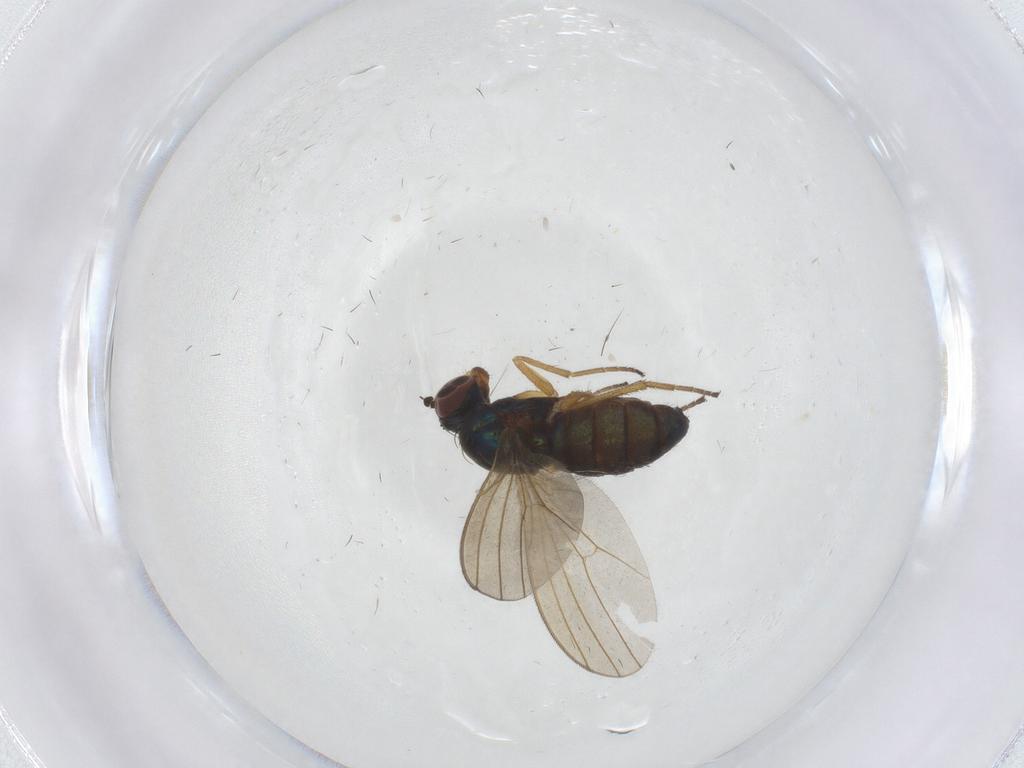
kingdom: Animalia
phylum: Arthropoda
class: Insecta
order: Diptera
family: Dolichopodidae
